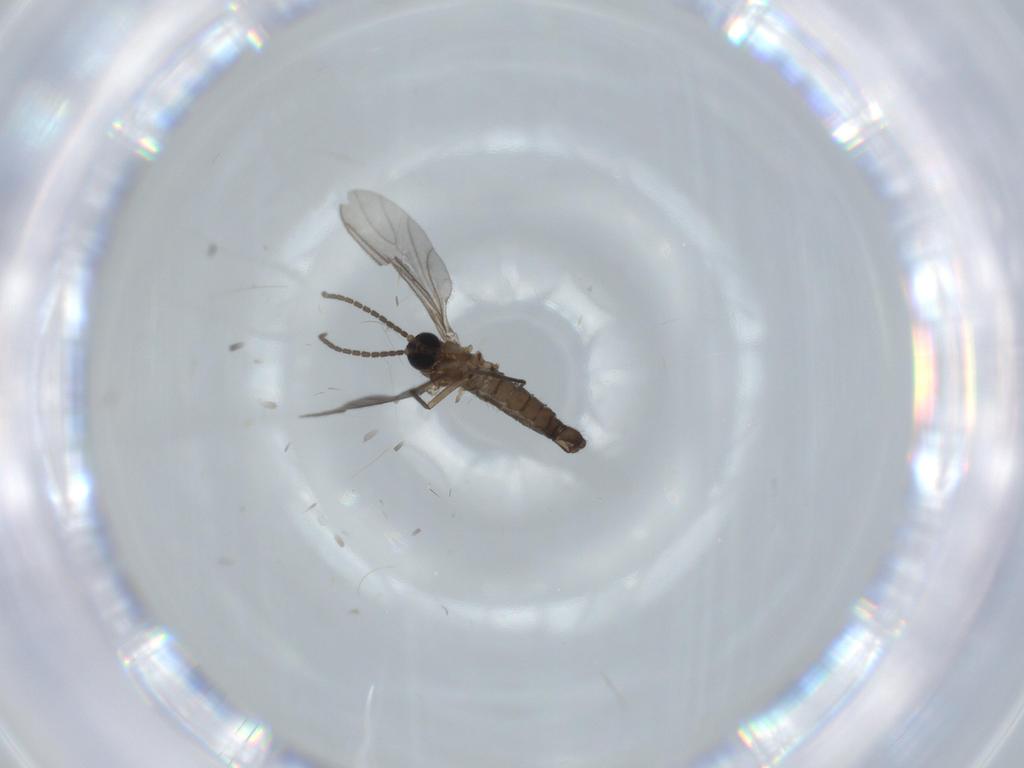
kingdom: Animalia
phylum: Arthropoda
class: Insecta
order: Diptera
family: Sciaridae
